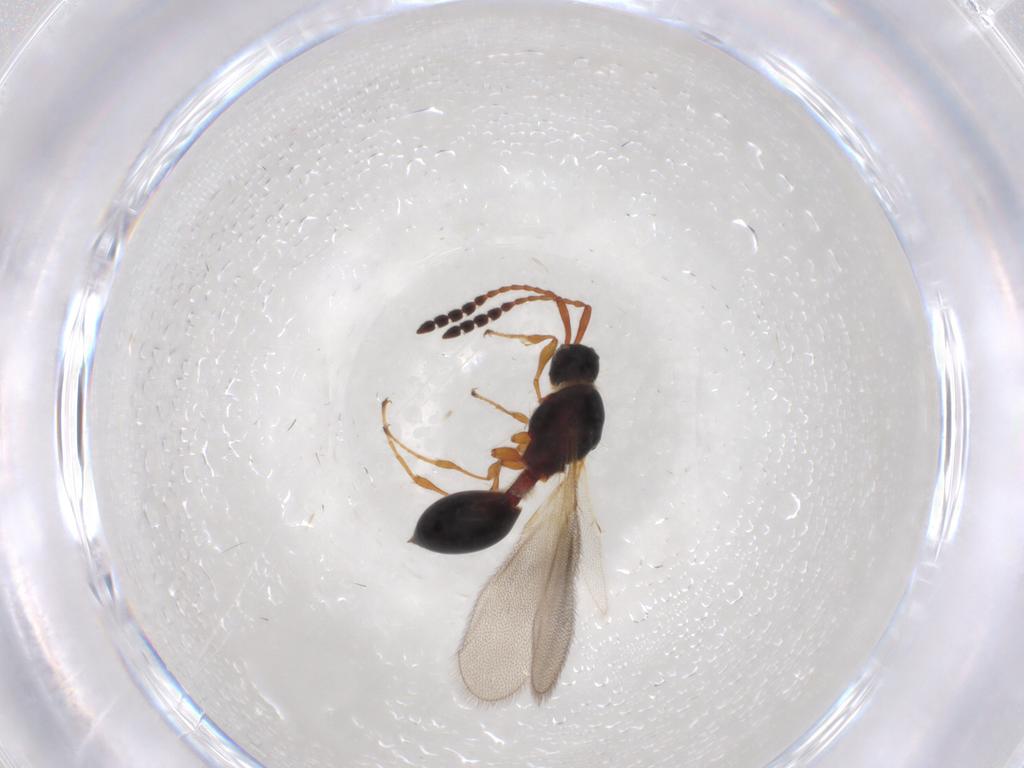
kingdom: Animalia
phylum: Arthropoda
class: Insecta
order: Hymenoptera
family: Diapriidae
